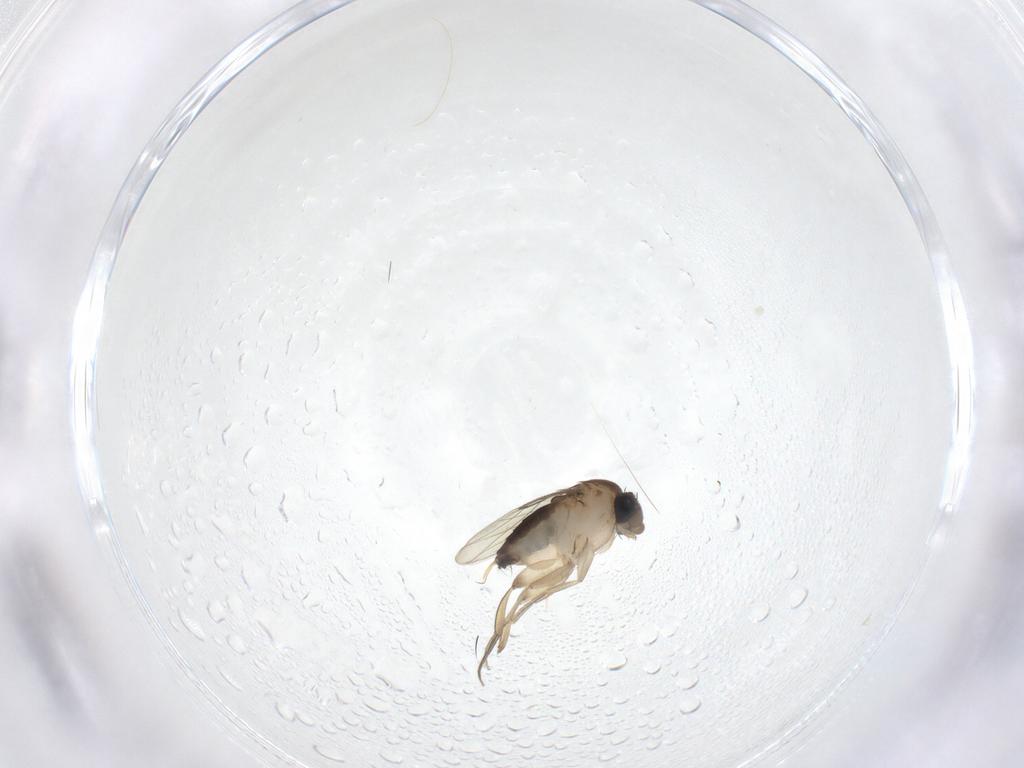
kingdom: Animalia
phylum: Arthropoda
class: Insecta
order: Diptera
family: Phoridae
